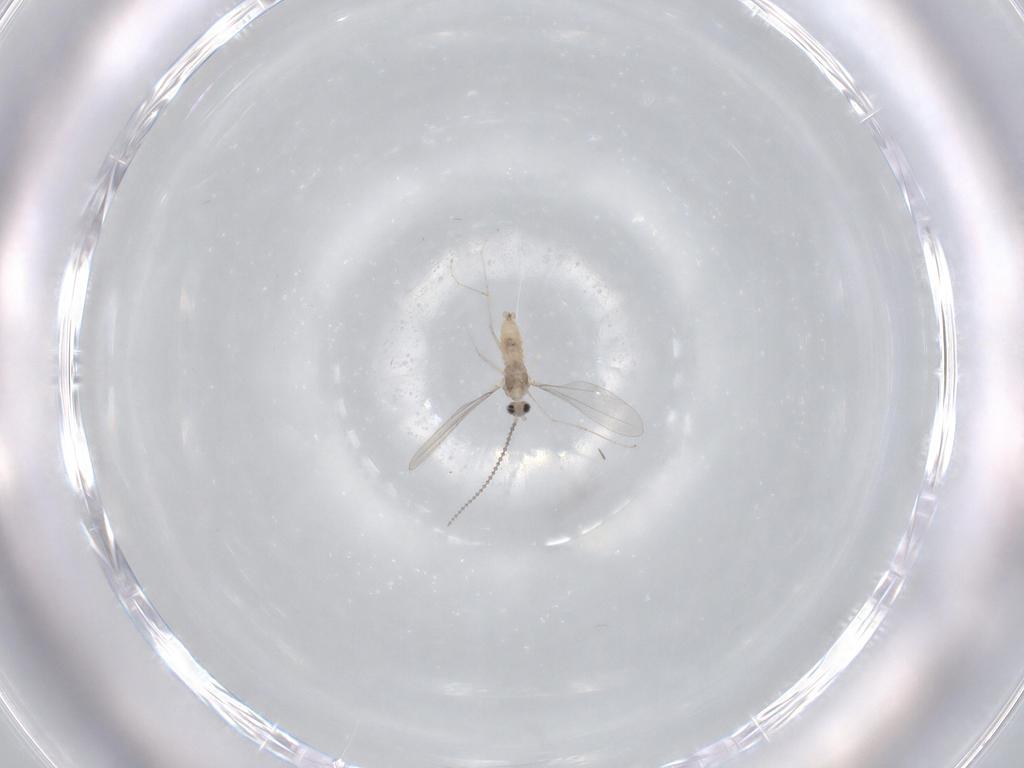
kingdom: Animalia
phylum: Arthropoda
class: Insecta
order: Diptera
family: Cecidomyiidae
